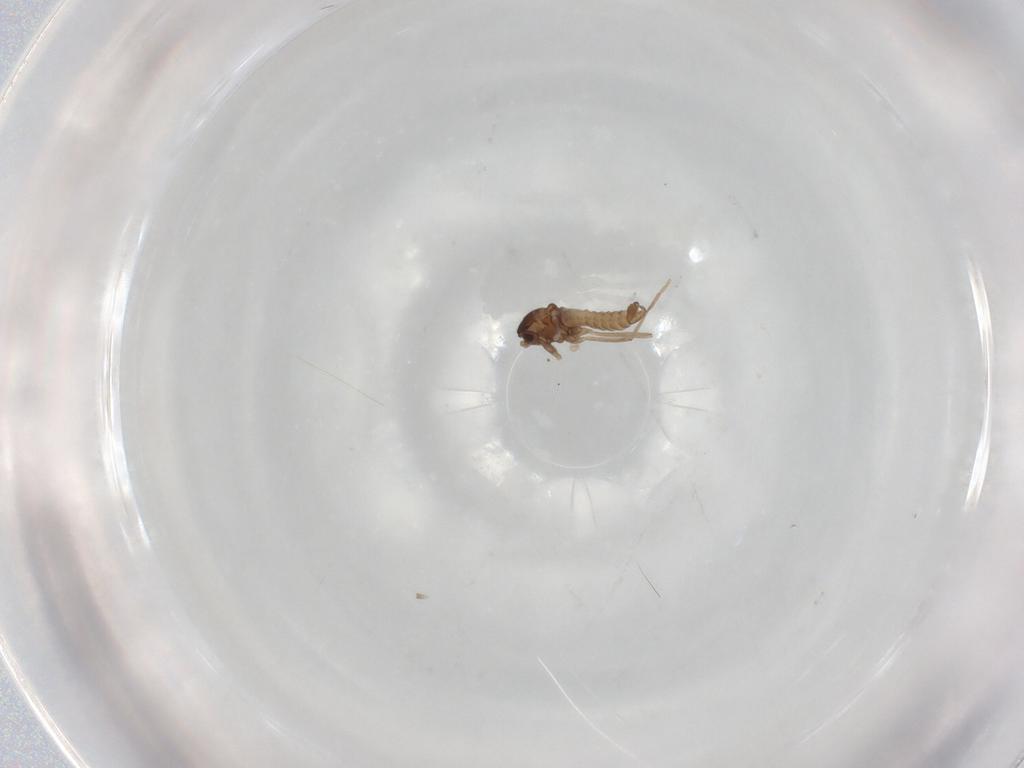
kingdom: Animalia
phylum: Arthropoda
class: Insecta
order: Diptera
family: Cecidomyiidae
